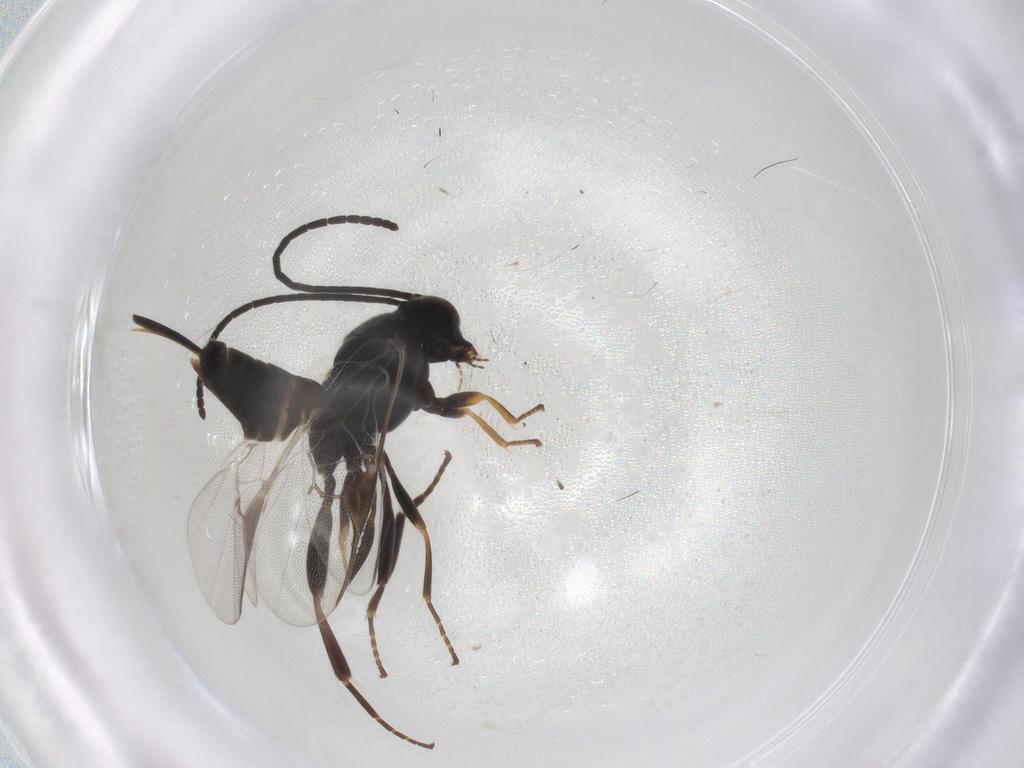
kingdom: Animalia
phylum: Arthropoda
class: Insecta
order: Hymenoptera
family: Braconidae
